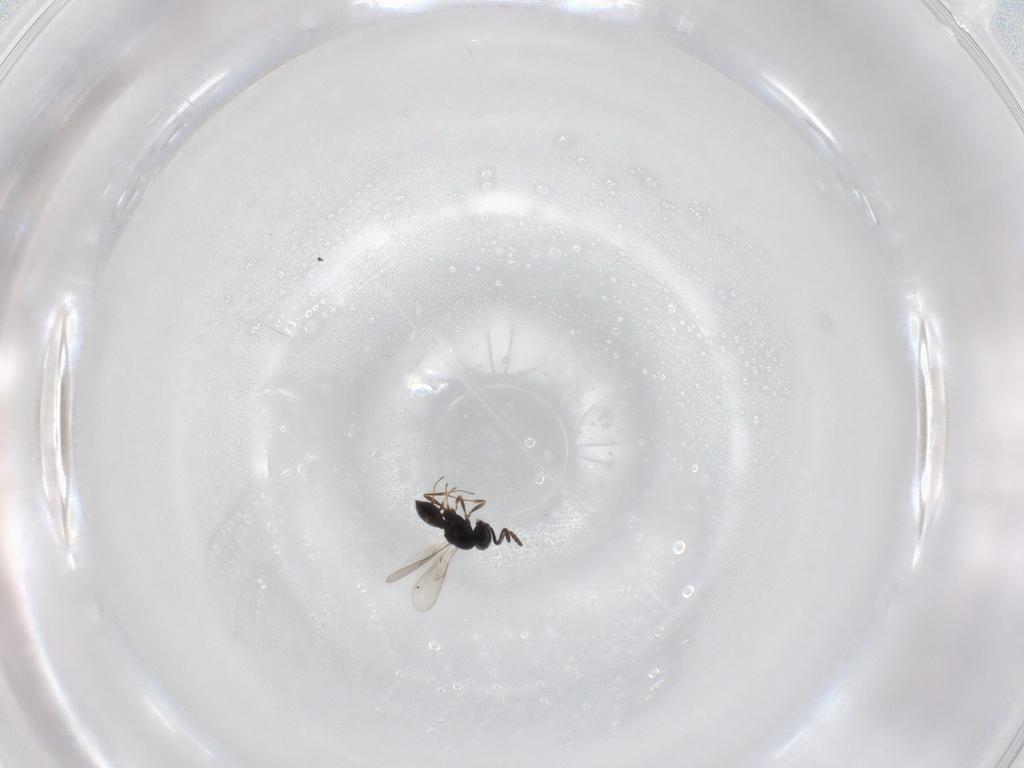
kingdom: Animalia
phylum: Arthropoda
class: Insecta
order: Hymenoptera
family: Scelionidae
